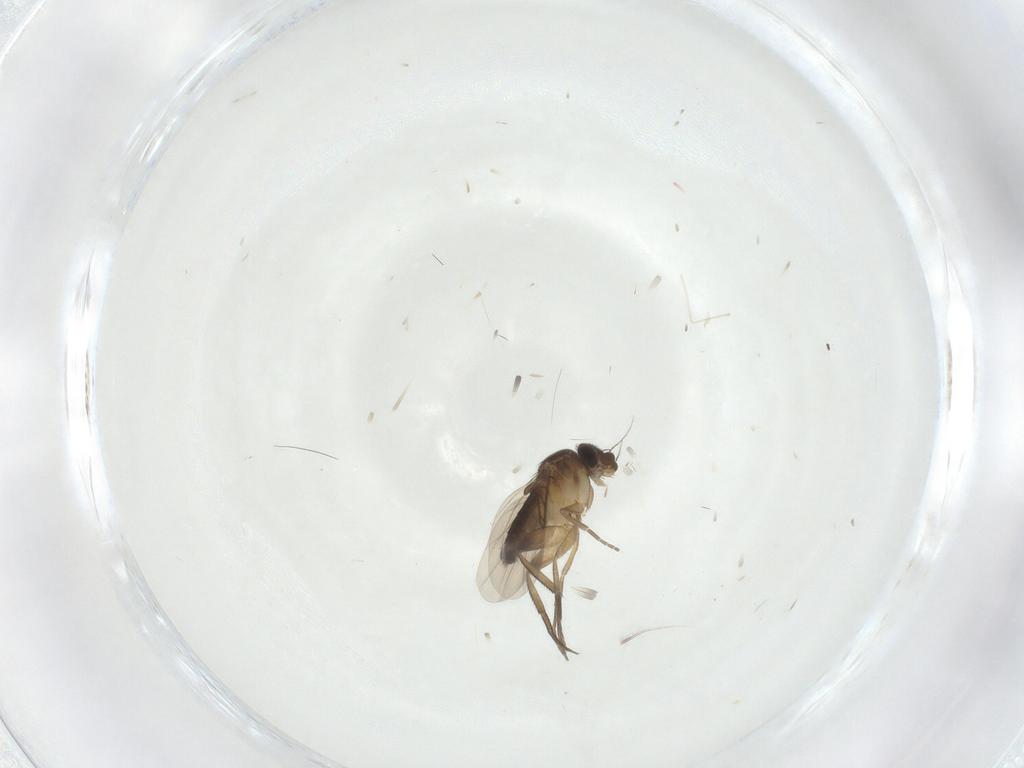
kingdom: Animalia
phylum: Arthropoda
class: Insecta
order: Diptera
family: Phoridae
